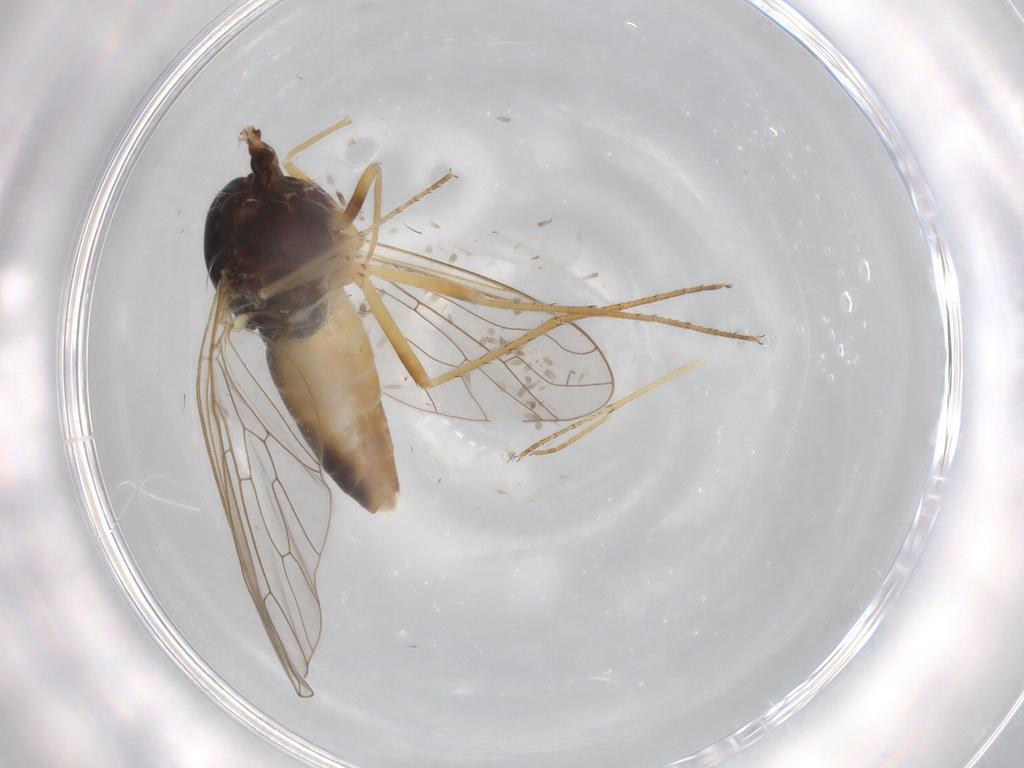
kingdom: Animalia
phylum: Arthropoda
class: Insecta
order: Diptera
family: Bombyliidae
